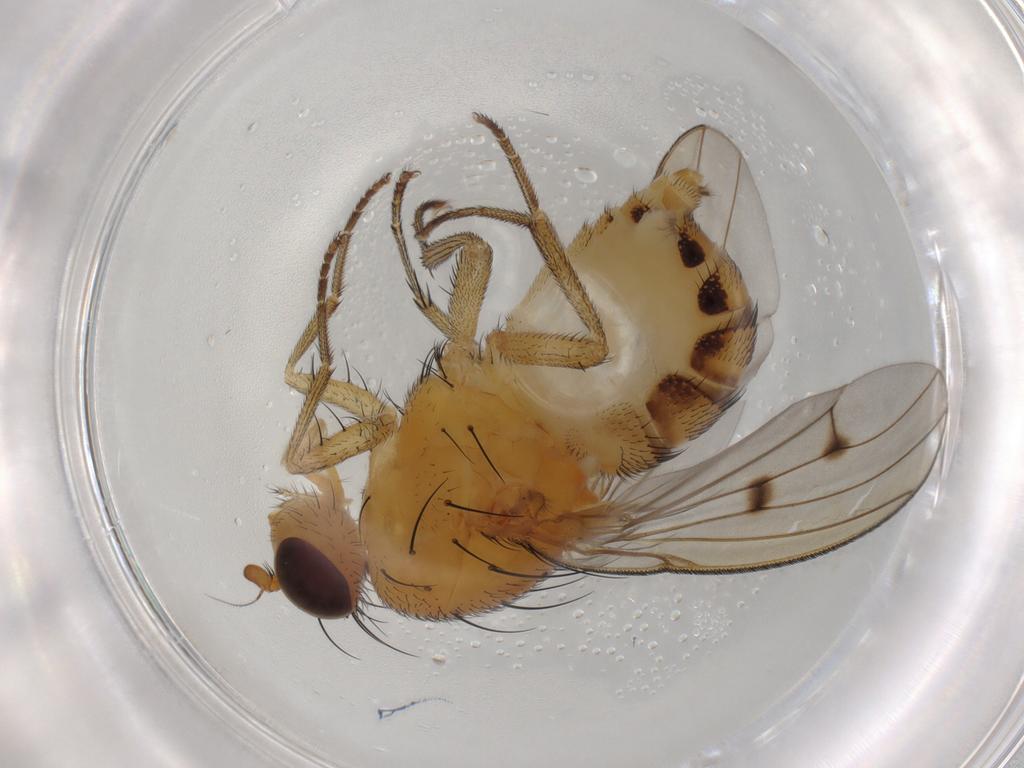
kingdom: Animalia
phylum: Arthropoda
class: Insecta
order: Diptera
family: Lauxaniidae
